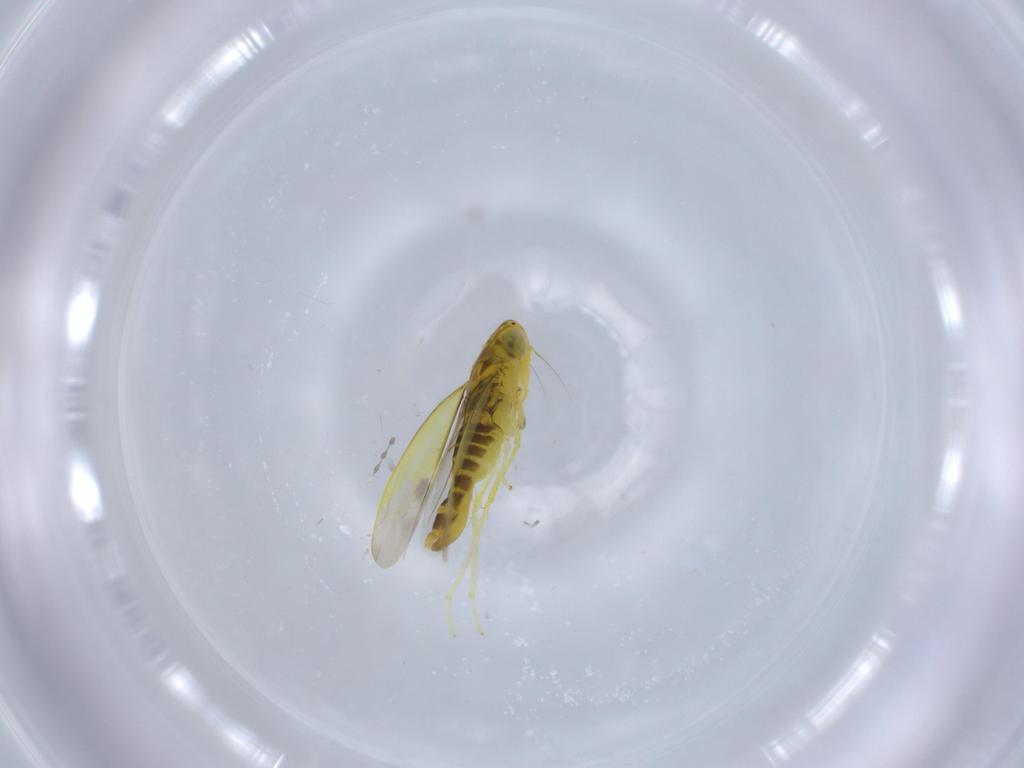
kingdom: Animalia
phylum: Arthropoda
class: Insecta
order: Hemiptera
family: Cicadellidae
